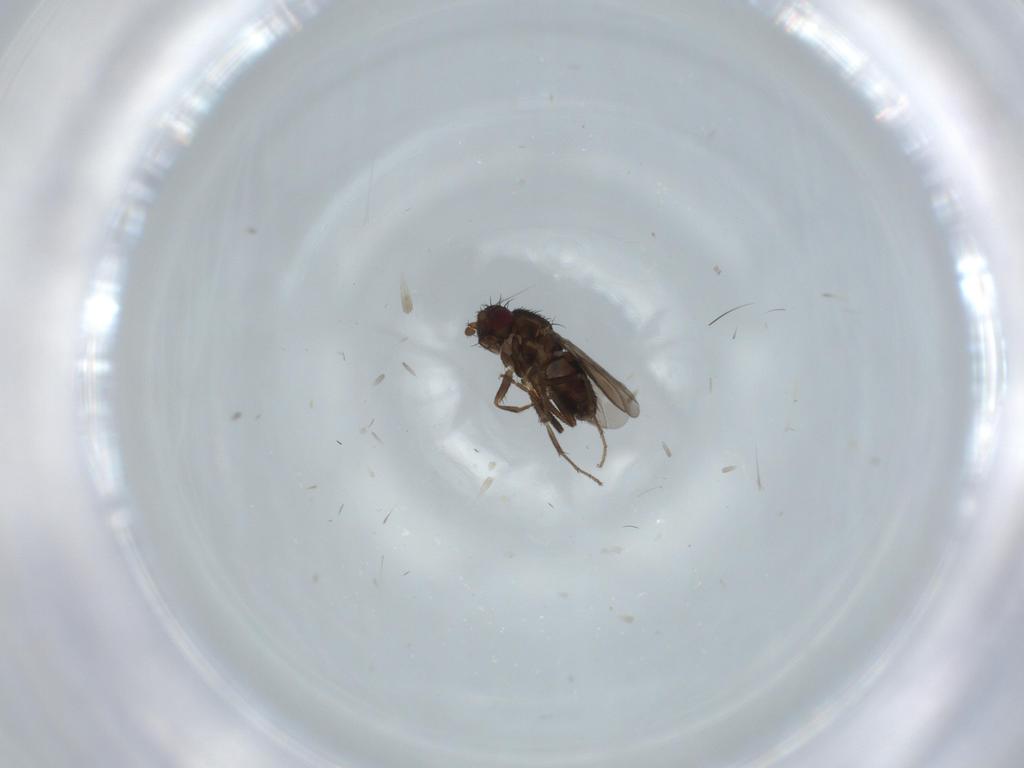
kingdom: Animalia
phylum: Arthropoda
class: Insecta
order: Diptera
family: Sphaeroceridae
